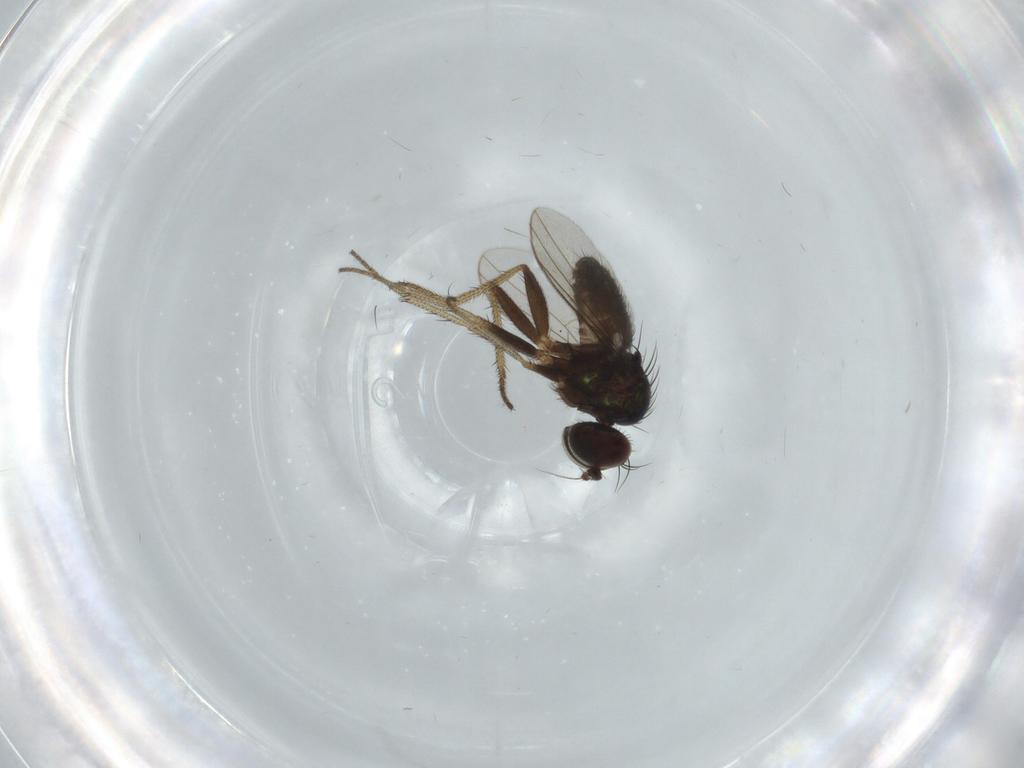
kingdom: Animalia
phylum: Arthropoda
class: Insecta
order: Diptera
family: Dolichopodidae
